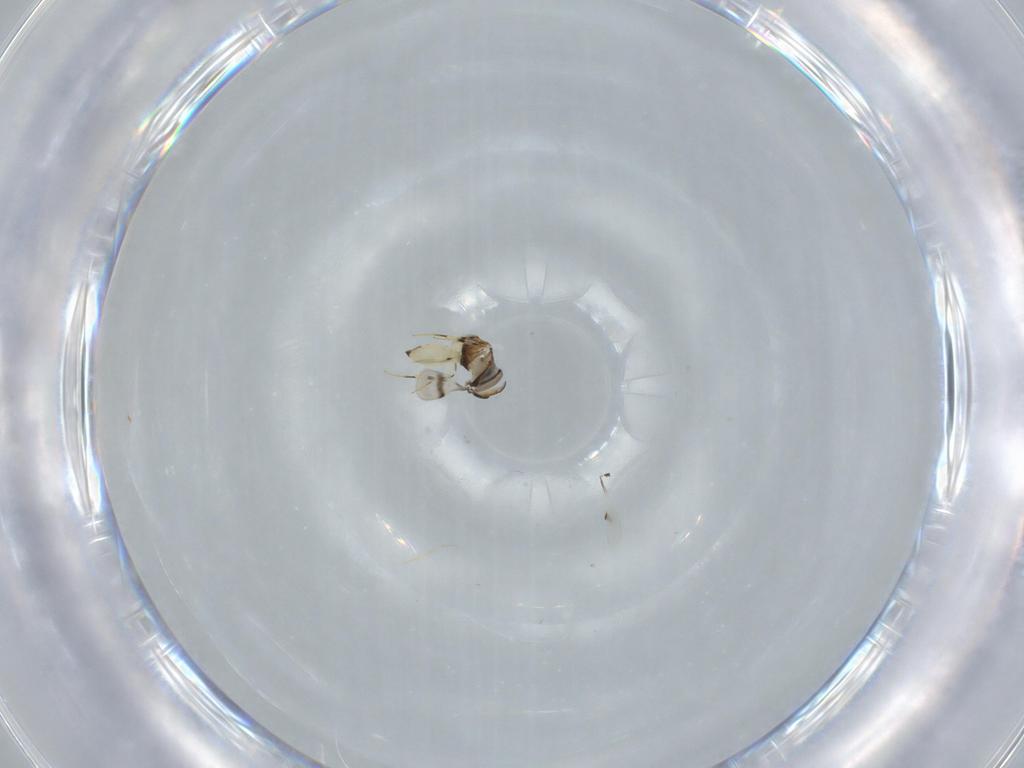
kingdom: Animalia
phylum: Arthropoda
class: Insecta
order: Hymenoptera
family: Scelionidae
